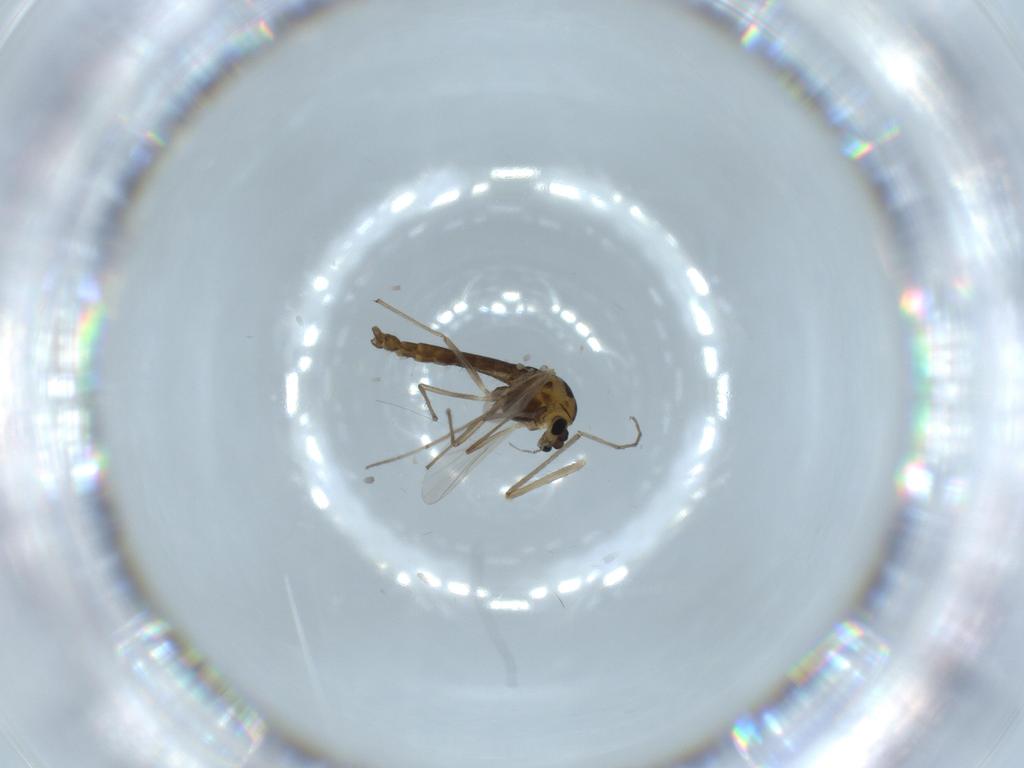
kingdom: Animalia
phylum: Arthropoda
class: Insecta
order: Diptera
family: Chironomidae
